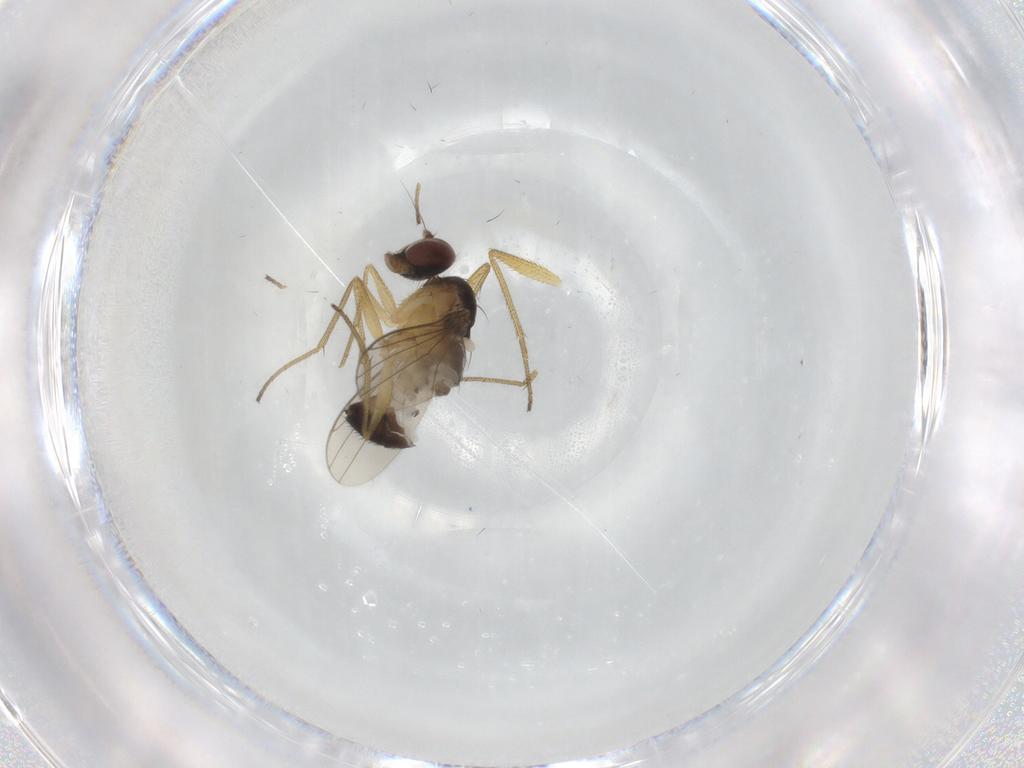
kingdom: Animalia
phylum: Arthropoda
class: Insecta
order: Diptera
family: Dolichopodidae
